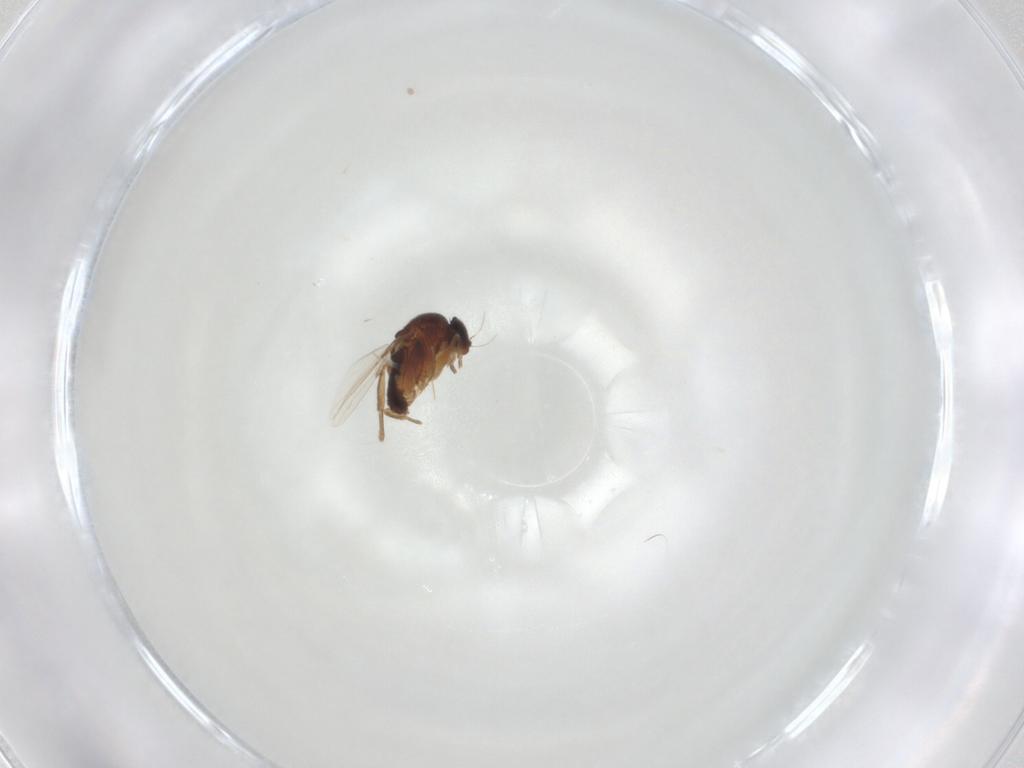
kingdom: Animalia
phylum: Arthropoda
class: Insecta
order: Diptera
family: Phoridae
